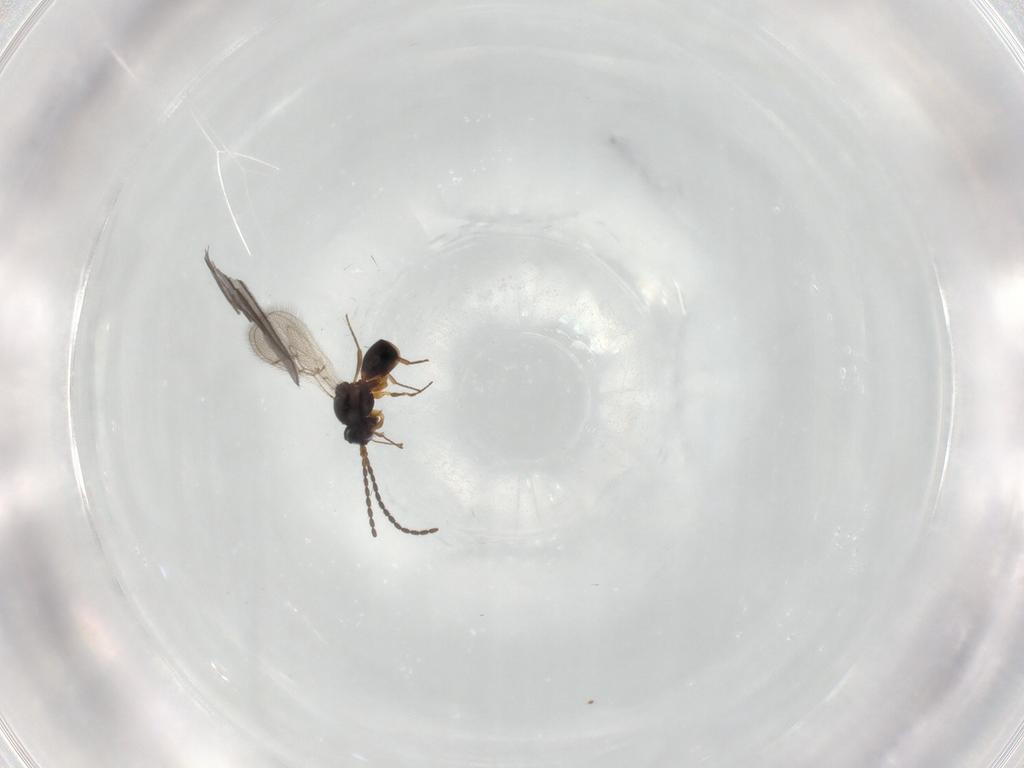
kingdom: Animalia
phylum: Arthropoda
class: Insecta
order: Hymenoptera
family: Figitidae
